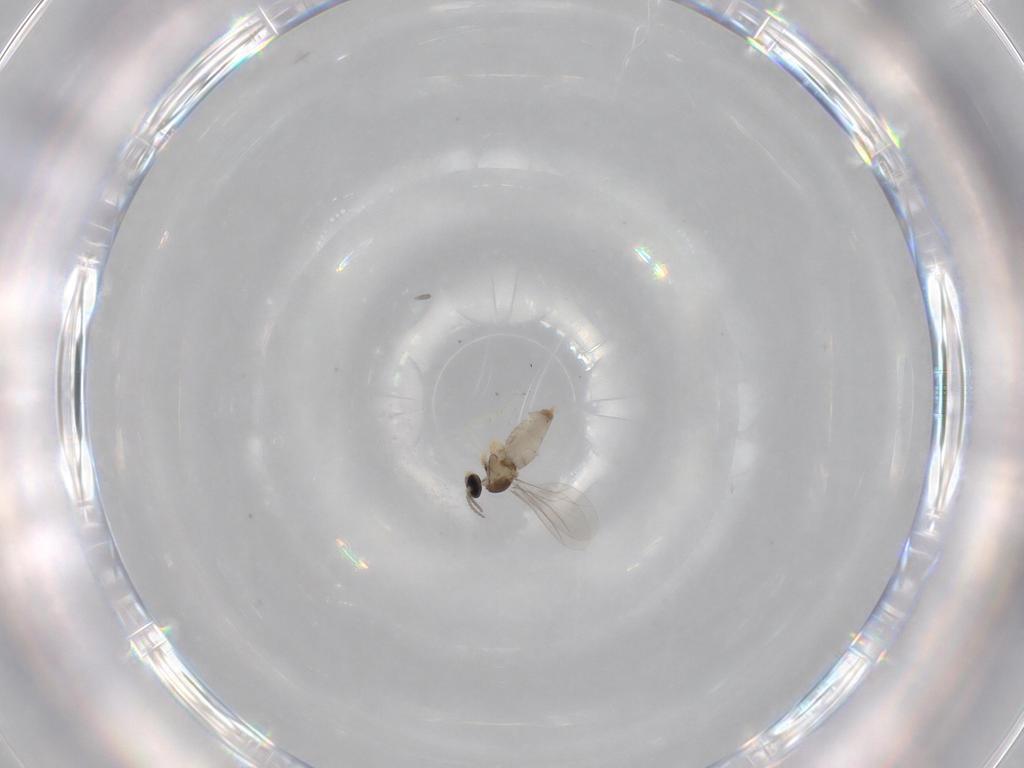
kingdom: Animalia
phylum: Arthropoda
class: Insecta
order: Diptera
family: Cecidomyiidae
